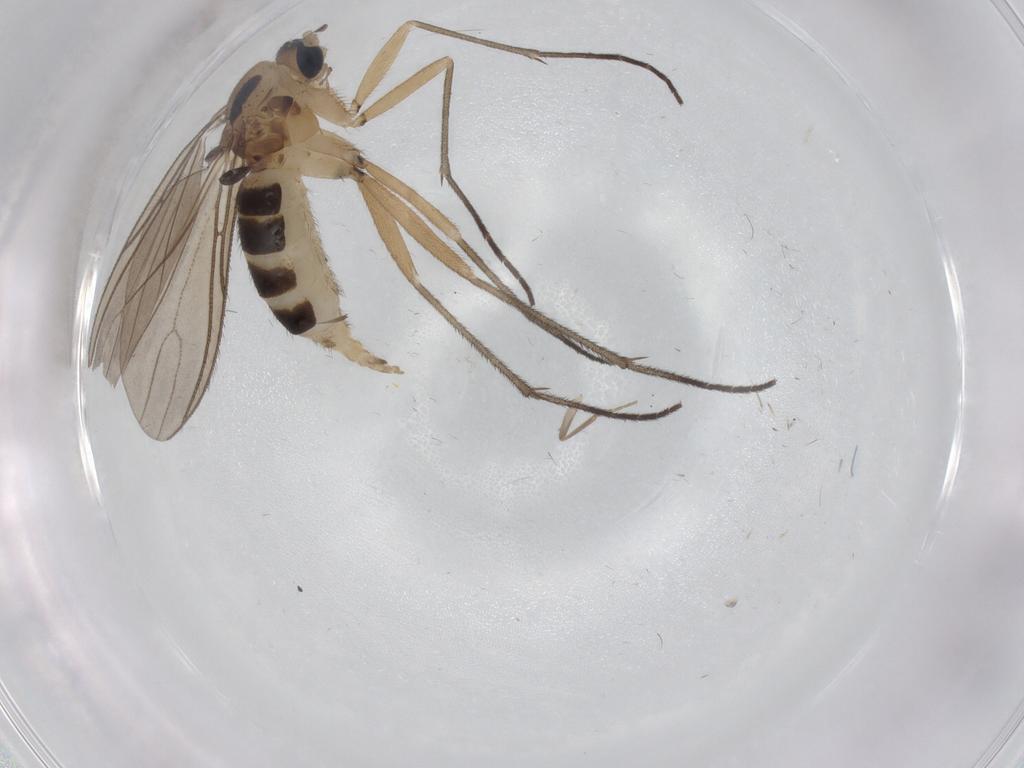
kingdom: Animalia
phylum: Arthropoda
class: Insecta
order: Diptera
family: Sciaridae
